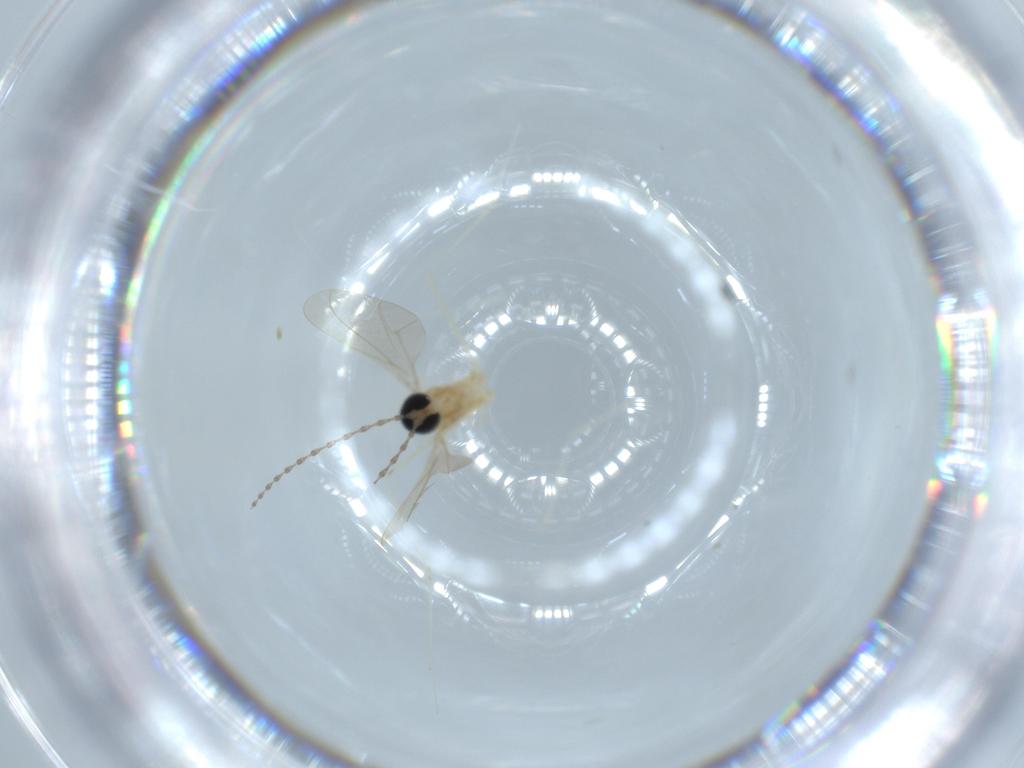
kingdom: Animalia
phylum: Arthropoda
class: Insecta
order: Diptera
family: Cecidomyiidae
